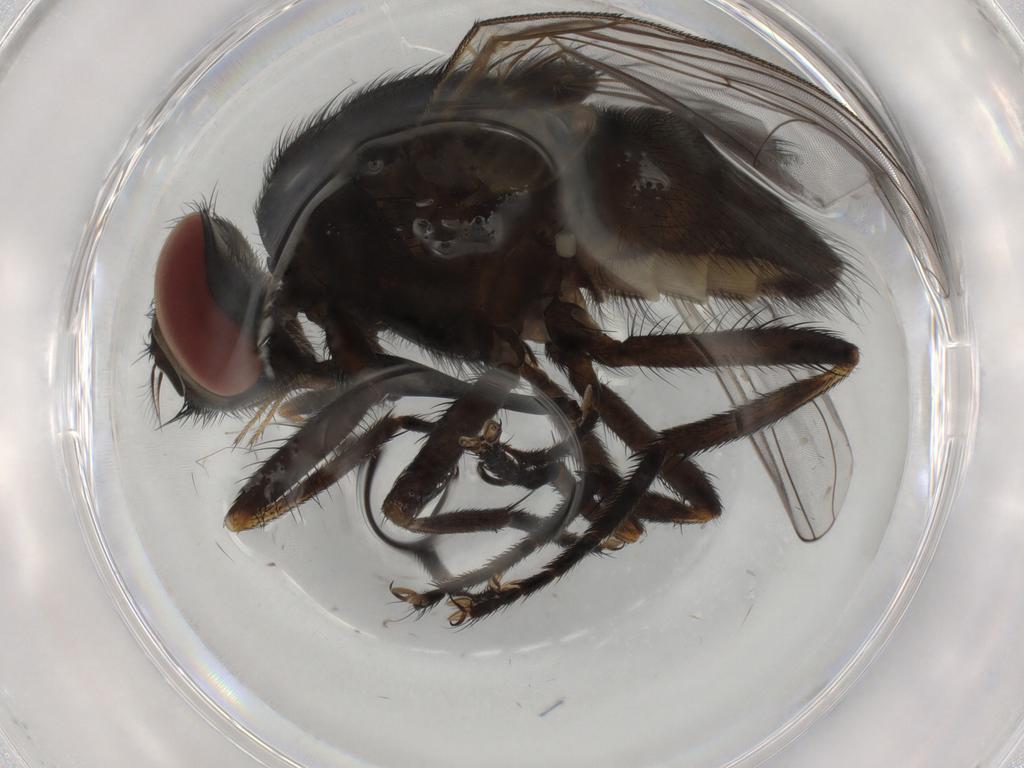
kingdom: Animalia
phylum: Arthropoda
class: Insecta
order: Diptera
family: Muscidae
